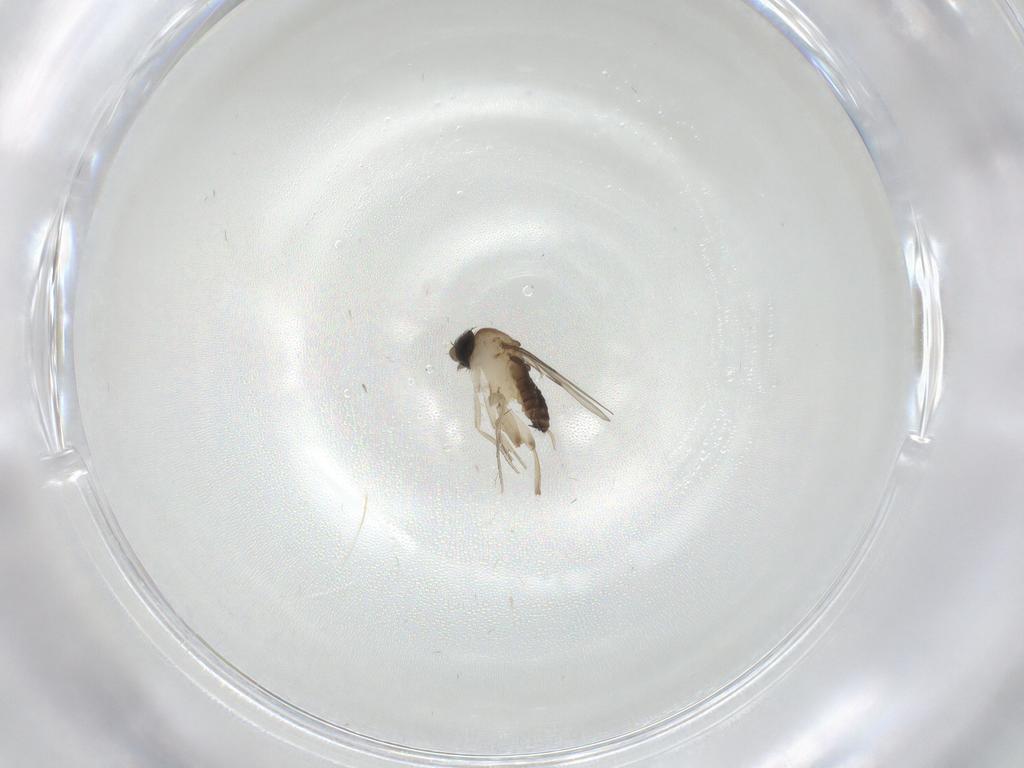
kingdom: Animalia
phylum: Arthropoda
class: Insecta
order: Diptera
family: Phoridae
